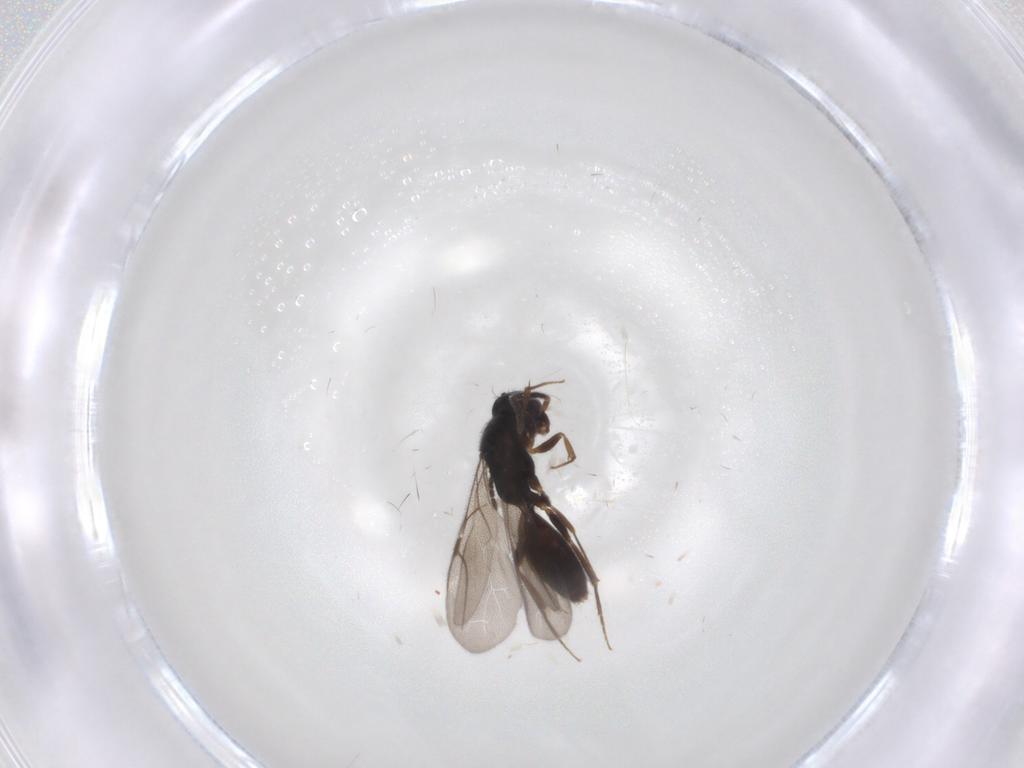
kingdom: Animalia
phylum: Arthropoda
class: Insecta
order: Hymenoptera
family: Bethylidae
